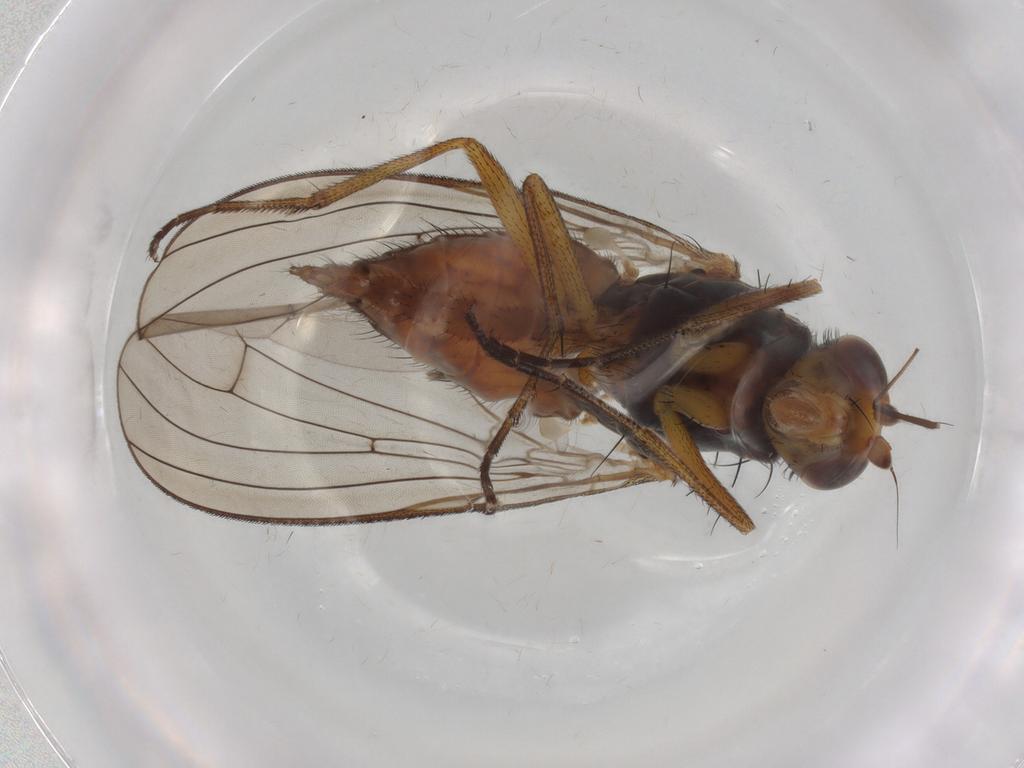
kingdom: Animalia
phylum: Arthropoda
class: Insecta
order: Diptera
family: Heleomyzidae
